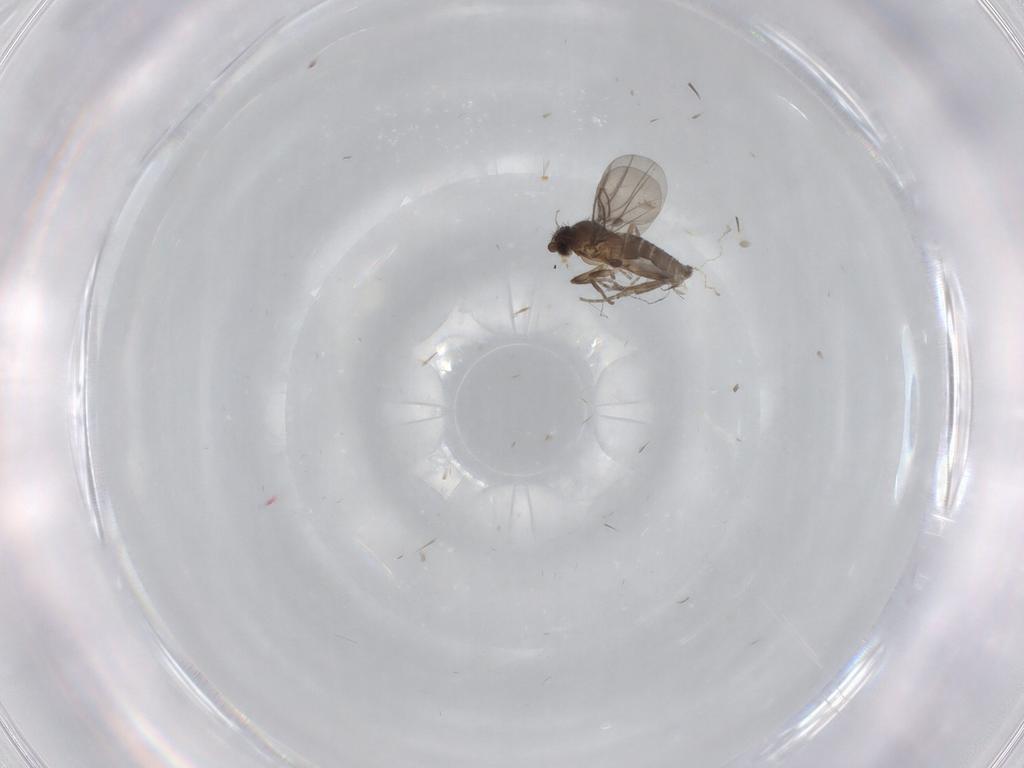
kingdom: Animalia
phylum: Arthropoda
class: Insecta
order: Diptera
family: Phoridae
